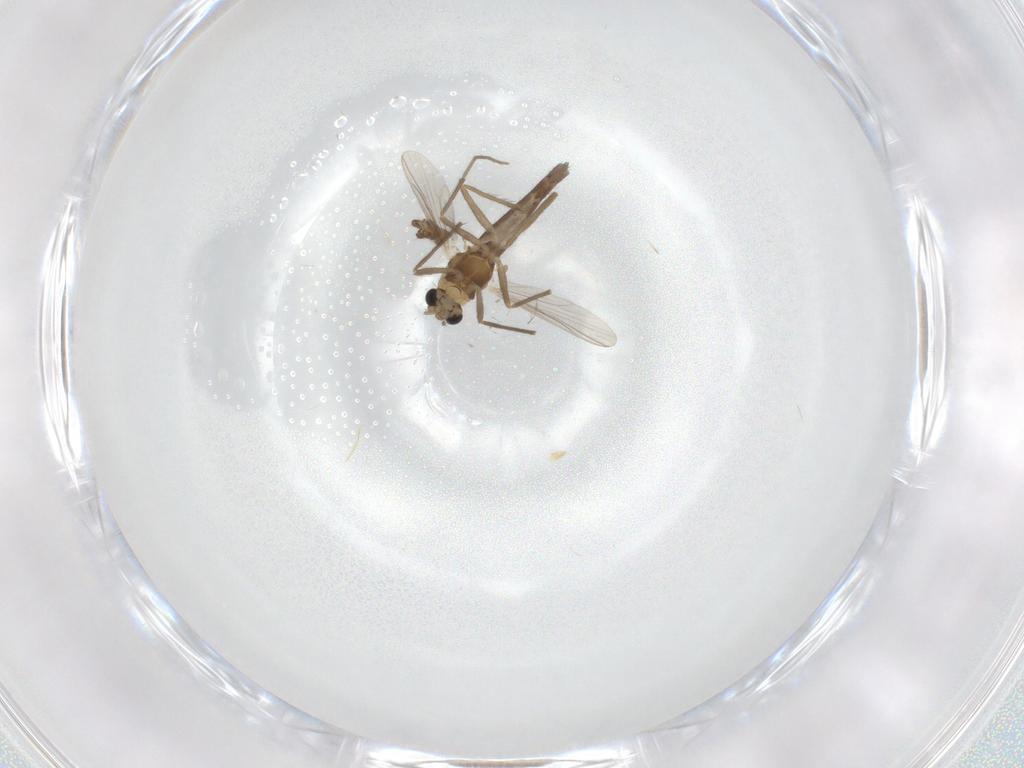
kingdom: Animalia
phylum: Arthropoda
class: Insecta
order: Diptera
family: Chironomidae
